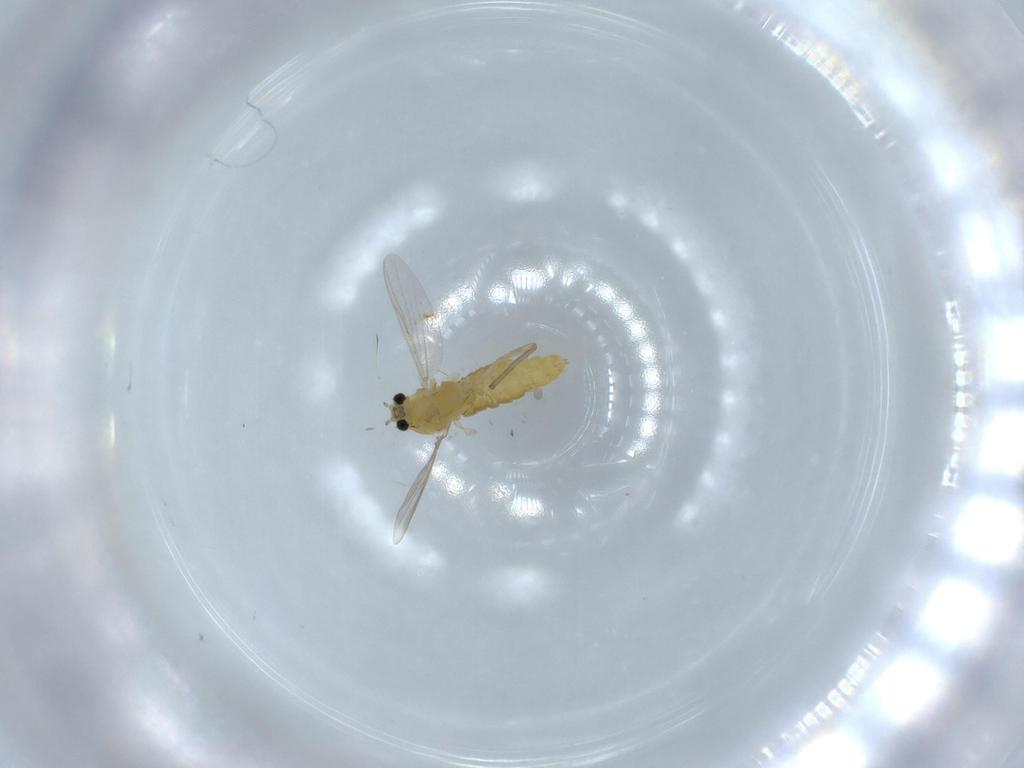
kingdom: Animalia
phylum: Arthropoda
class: Insecta
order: Diptera
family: Chironomidae
